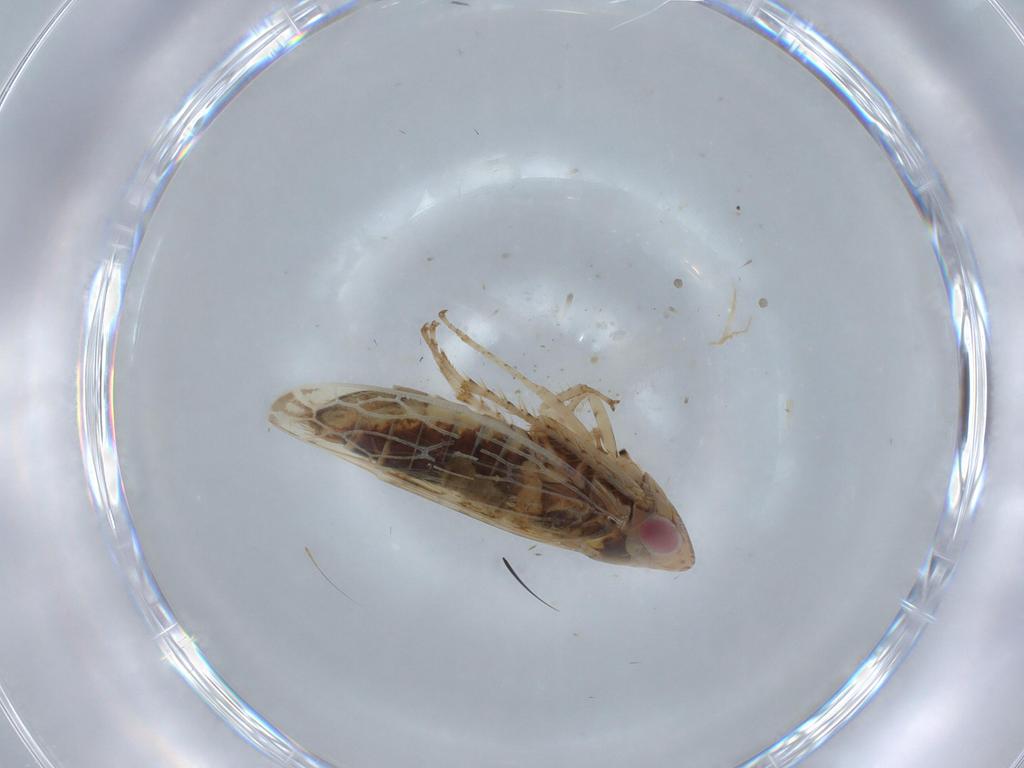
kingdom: Animalia
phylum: Arthropoda
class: Insecta
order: Hemiptera
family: Cicadellidae
